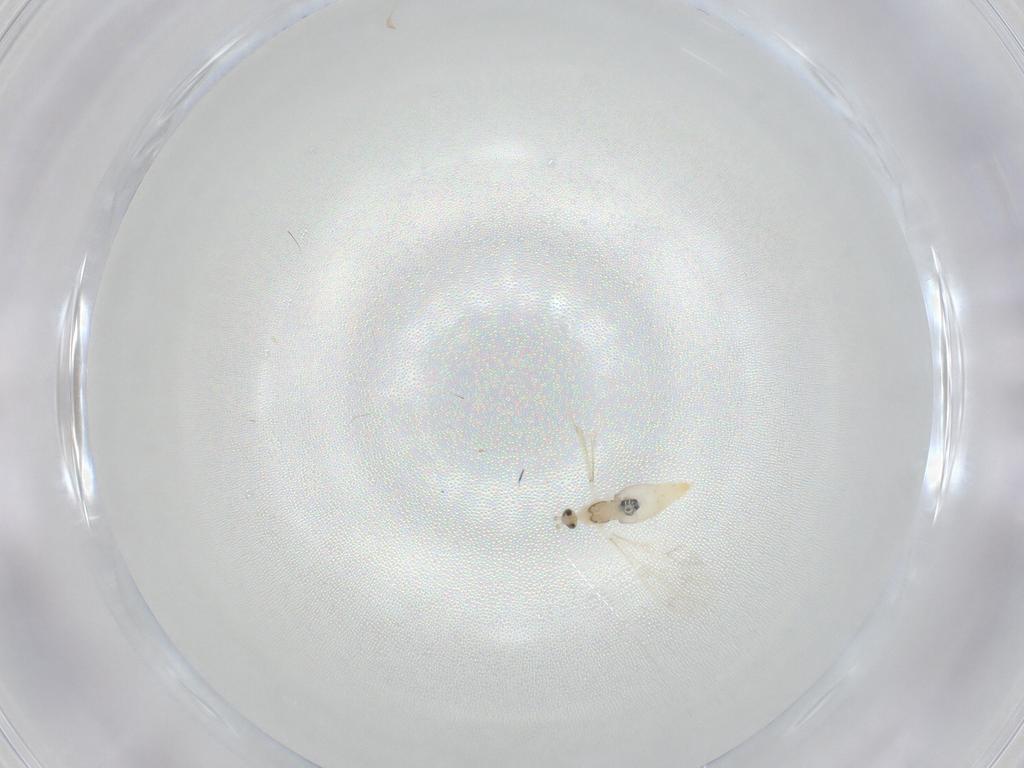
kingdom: Animalia
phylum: Arthropoda
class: Insecta
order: Diptera
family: Cecidomyiidae
